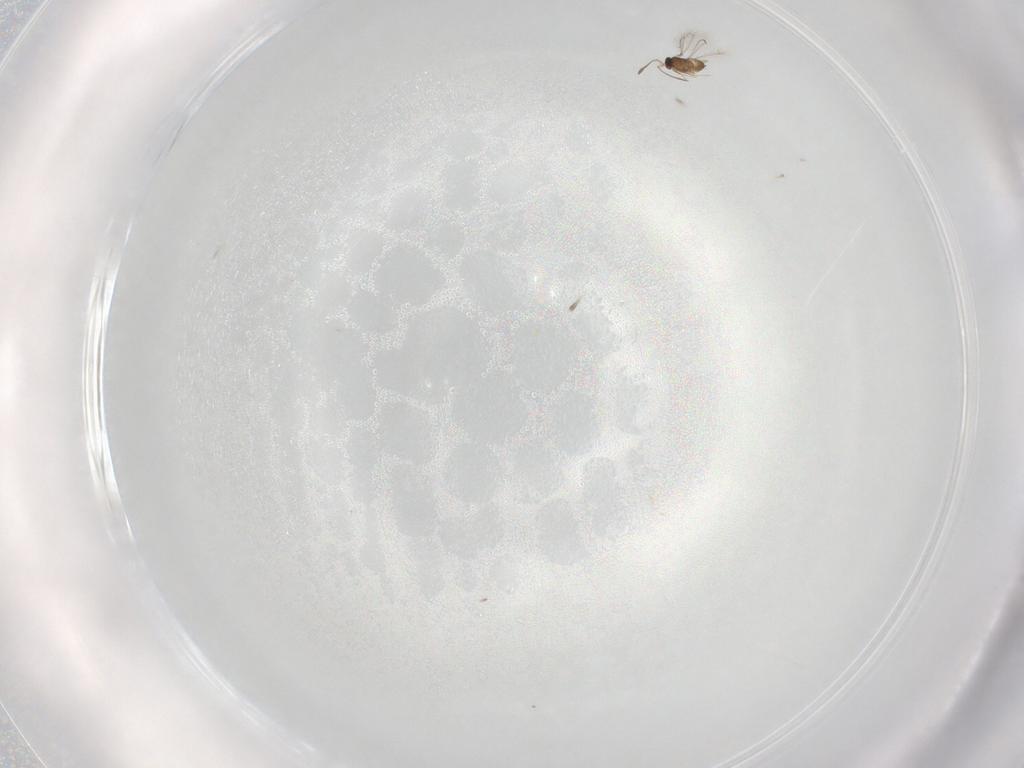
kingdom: Animalia
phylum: Arthropoda
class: Insecta
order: Hymenoptera
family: Mymaridae
